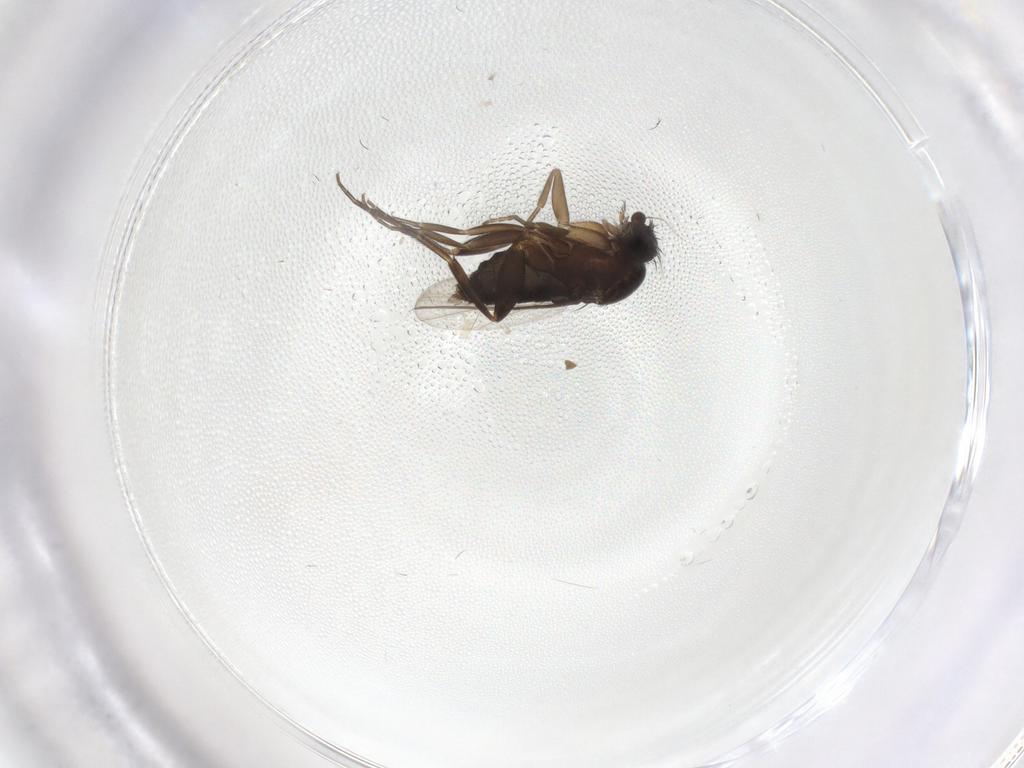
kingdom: Animalia
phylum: Arthropoda
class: Insecta
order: Diptera
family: Phoridae
